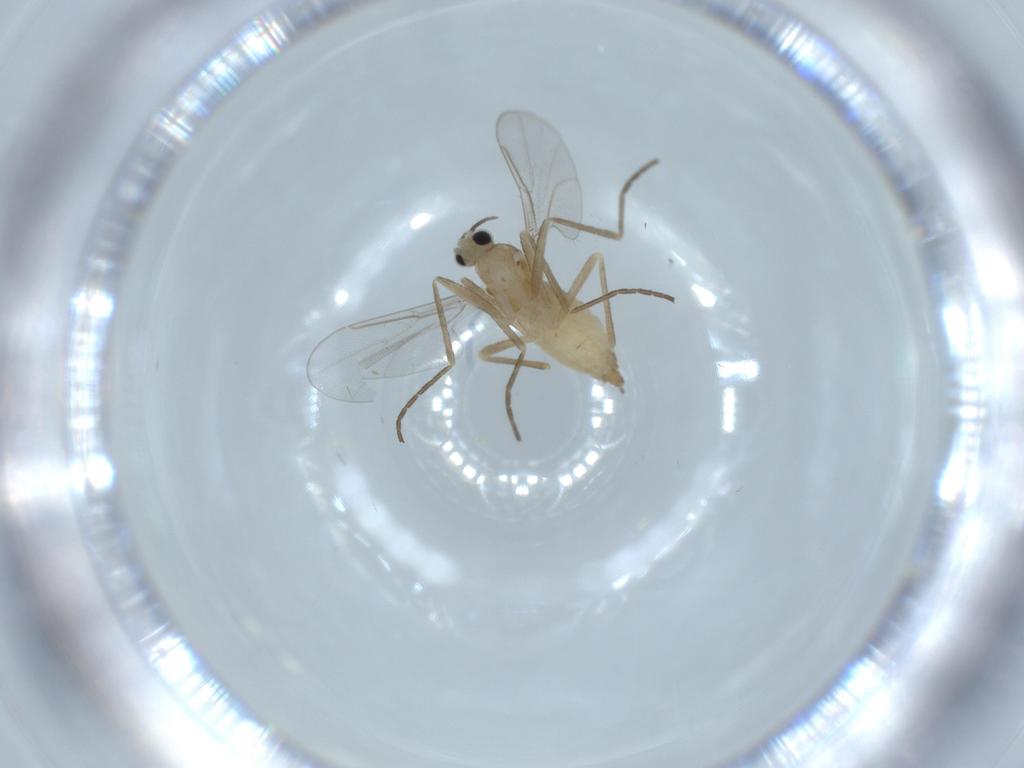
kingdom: Animalia
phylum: Arthropoda
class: Insecta
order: Diptera
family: Cecidomyiidae
